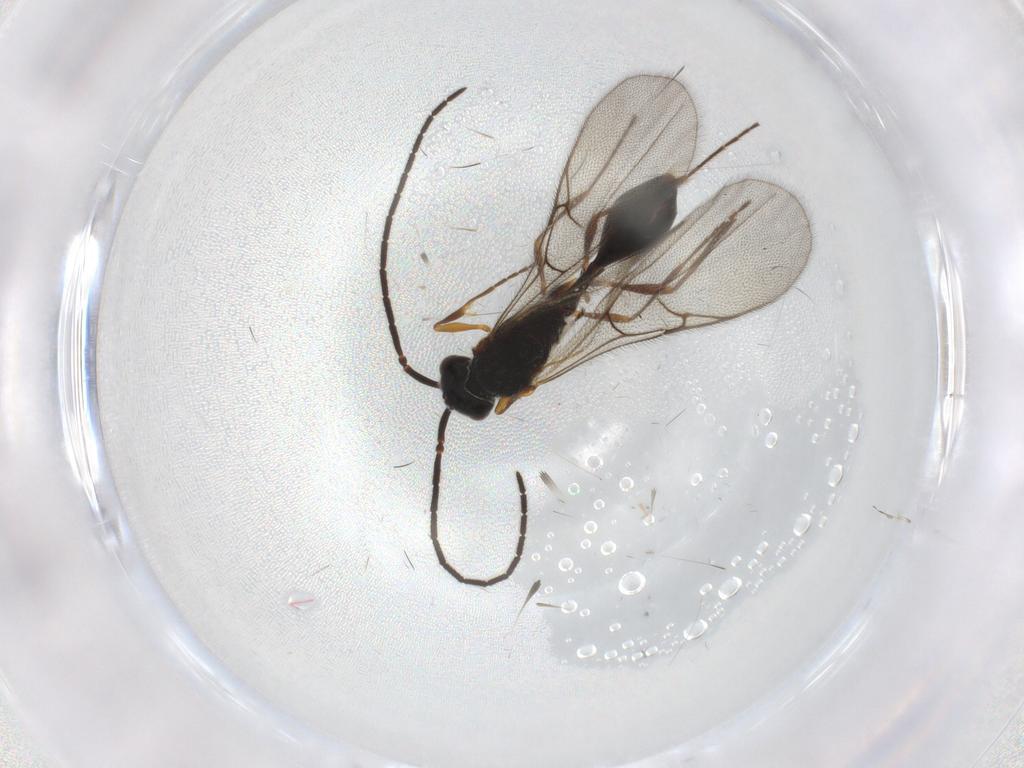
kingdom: Animalia
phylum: Arthropoda
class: Insecta
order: Hymenoptera
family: Diapriidae
